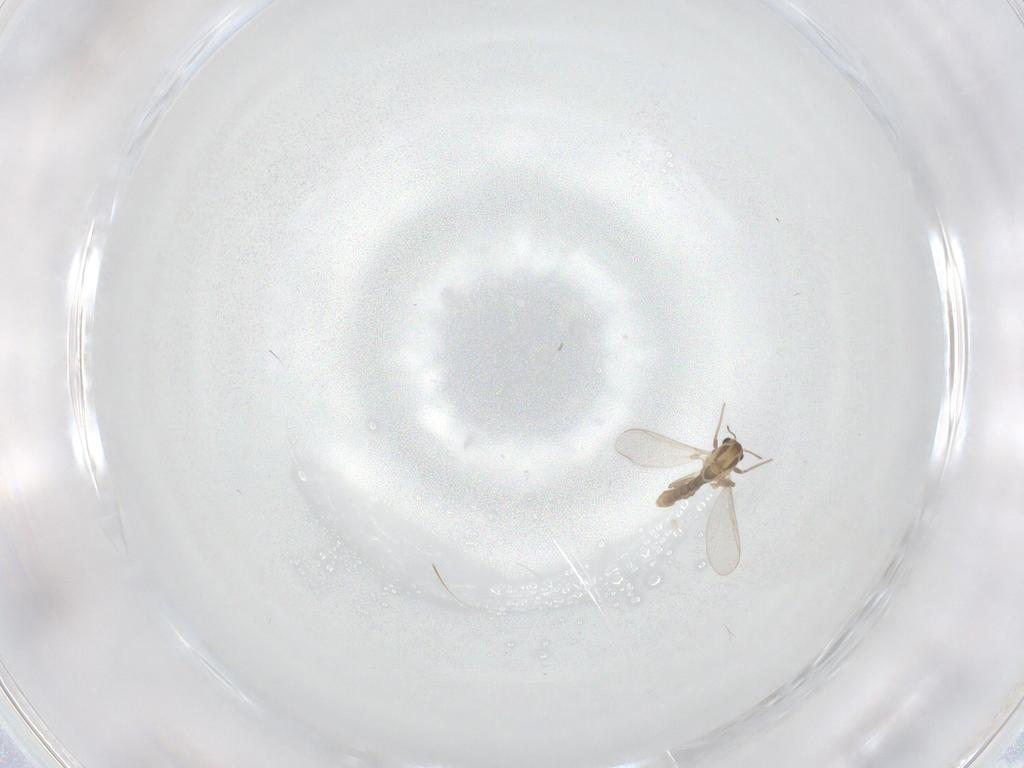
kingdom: Animalia
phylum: Arthropoda
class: Insecta
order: Diptera
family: Chironomidae
